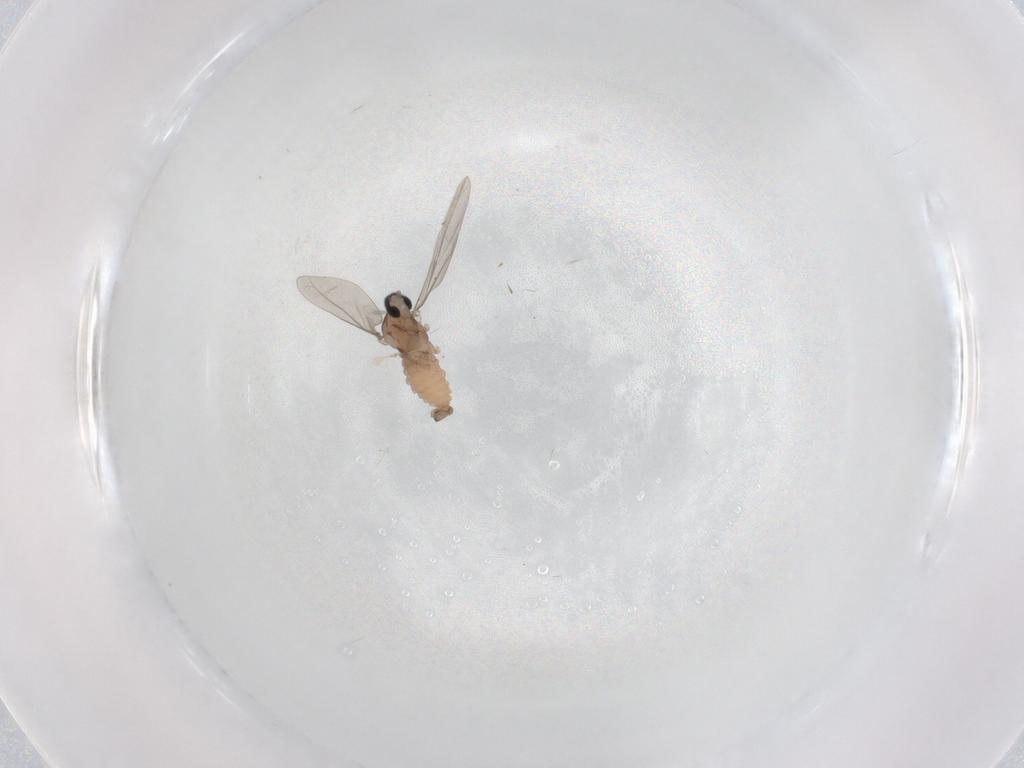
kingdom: Animalia
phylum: Arthropoda
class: Insecta
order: Diptera
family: Cecidomyiidae
